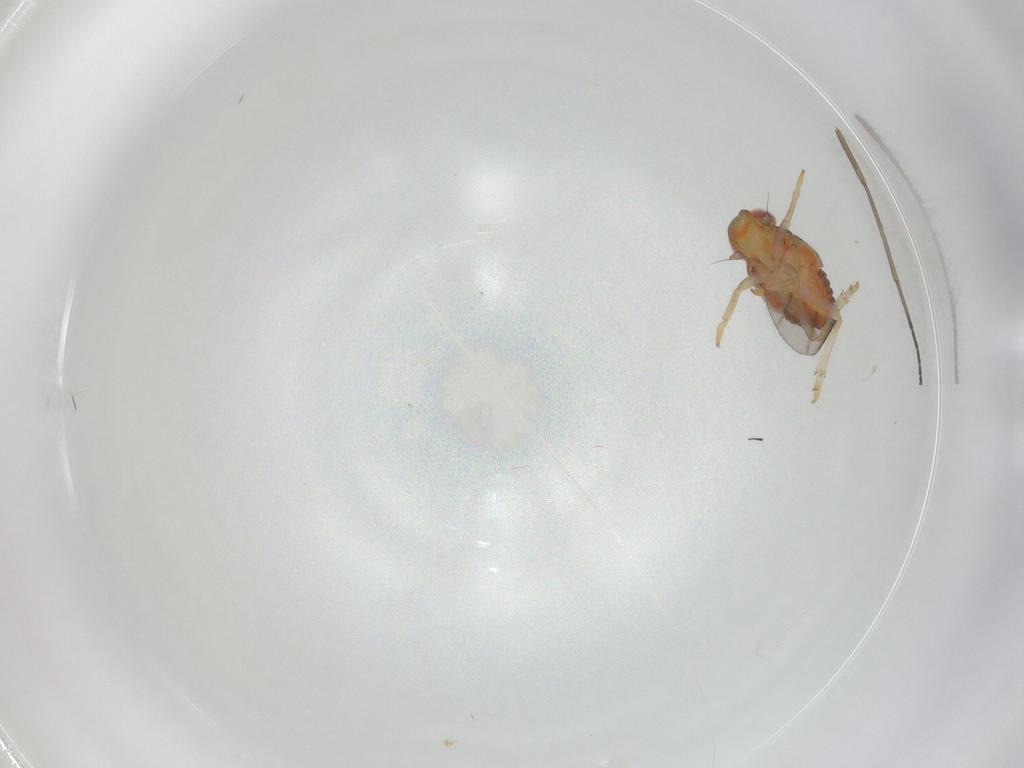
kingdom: Animalia
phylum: Arthropoda
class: Insecta
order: Hemiptera
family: Issidae
